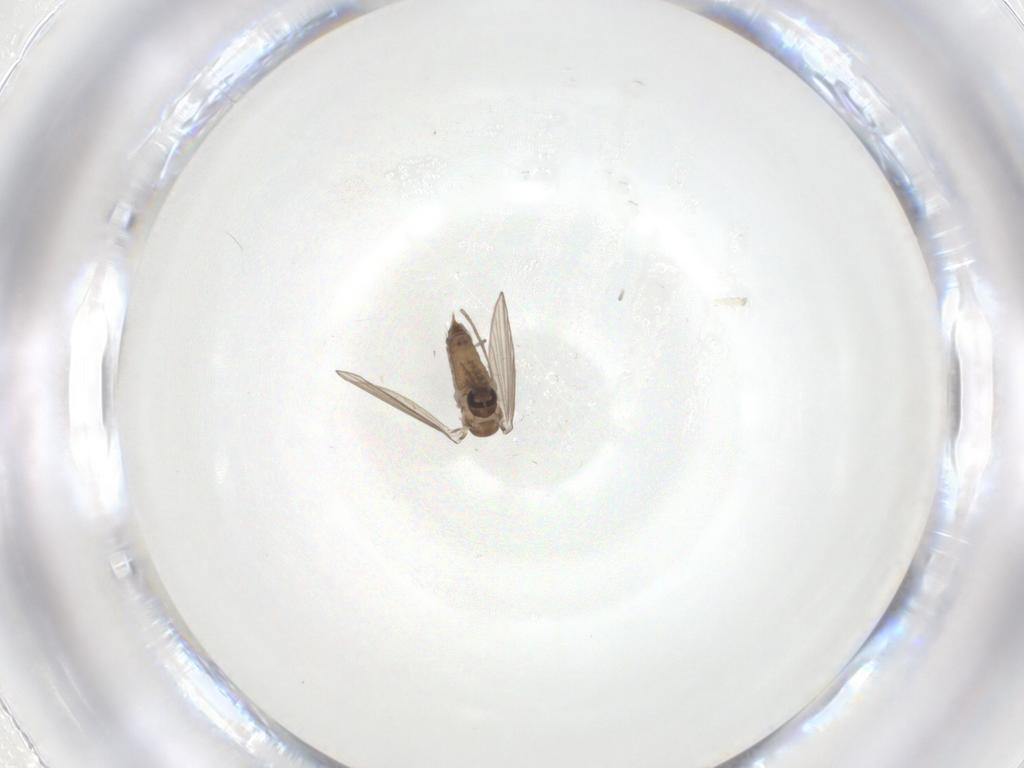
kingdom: Animalia
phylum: Arthropoda
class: Insecta
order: Diptera
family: Psychodidae
